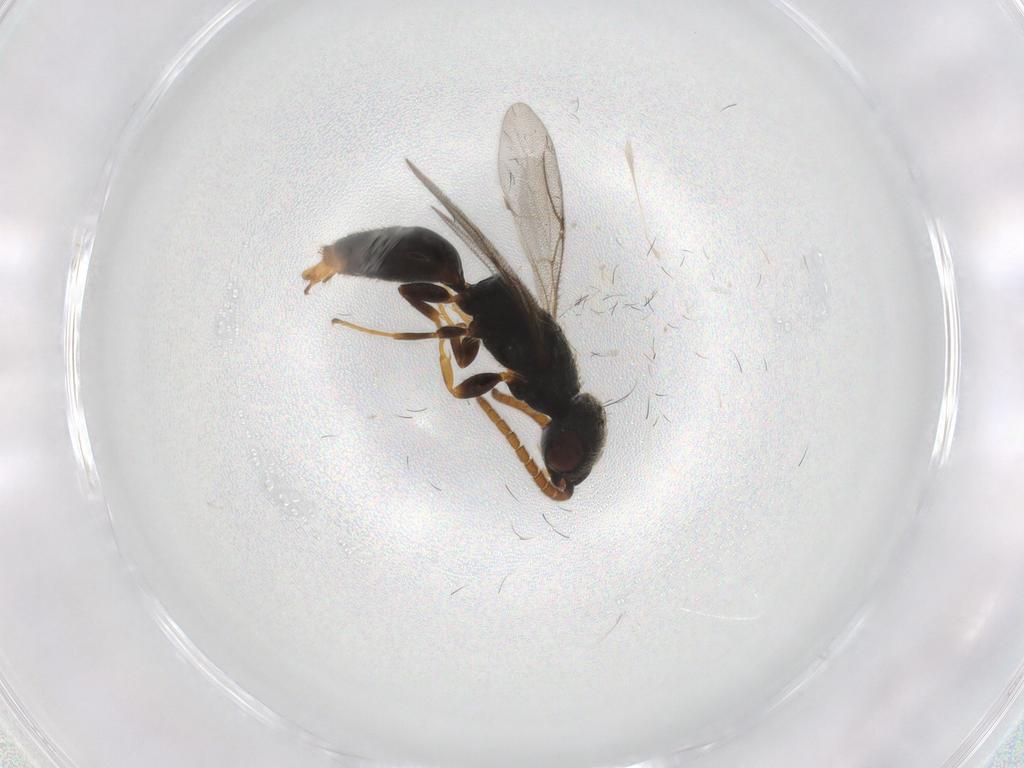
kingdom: Animalia
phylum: Arthropoda
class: Insecta
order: Hymenoptera
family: Bethylidae
